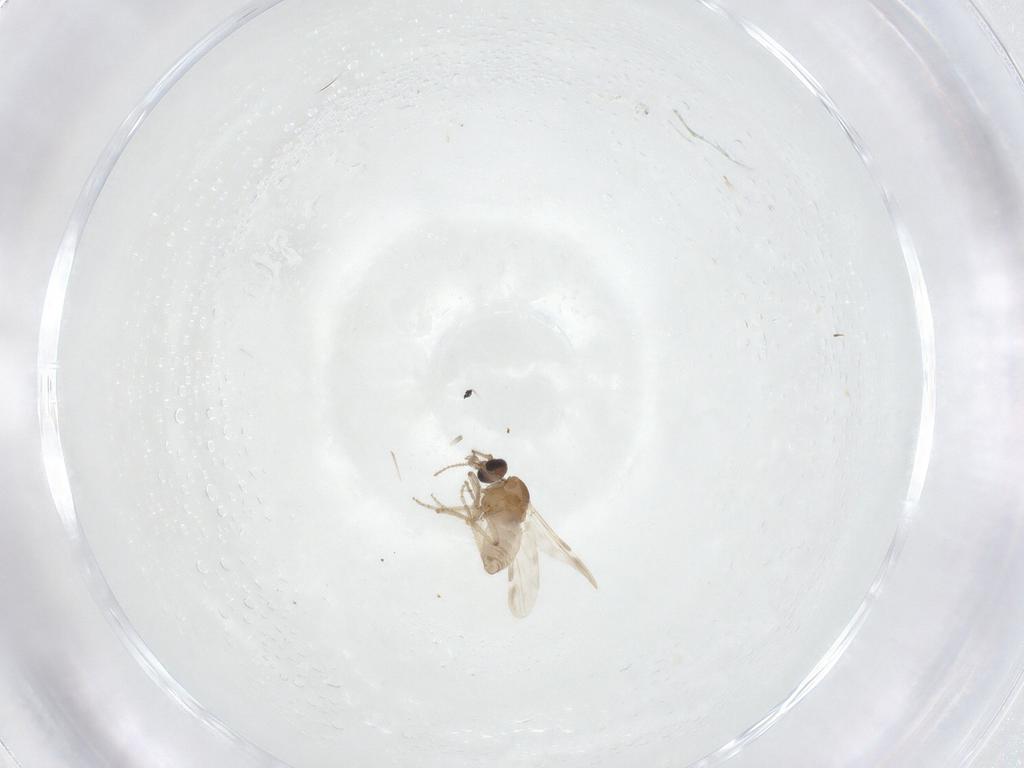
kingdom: Animalia
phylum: Arthropoda
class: Insecta
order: Diptera
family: Ceratopogonidae
